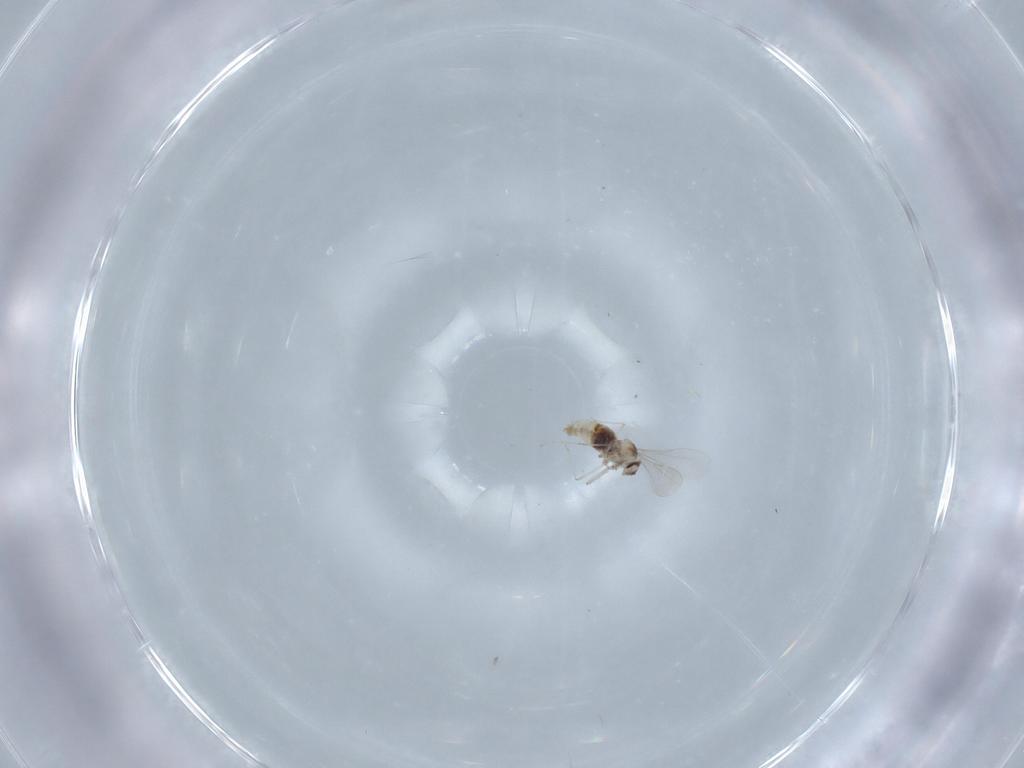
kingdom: Animalia
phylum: Arthropoda
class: Insecta
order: Diptera
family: Cecidomyiidae
